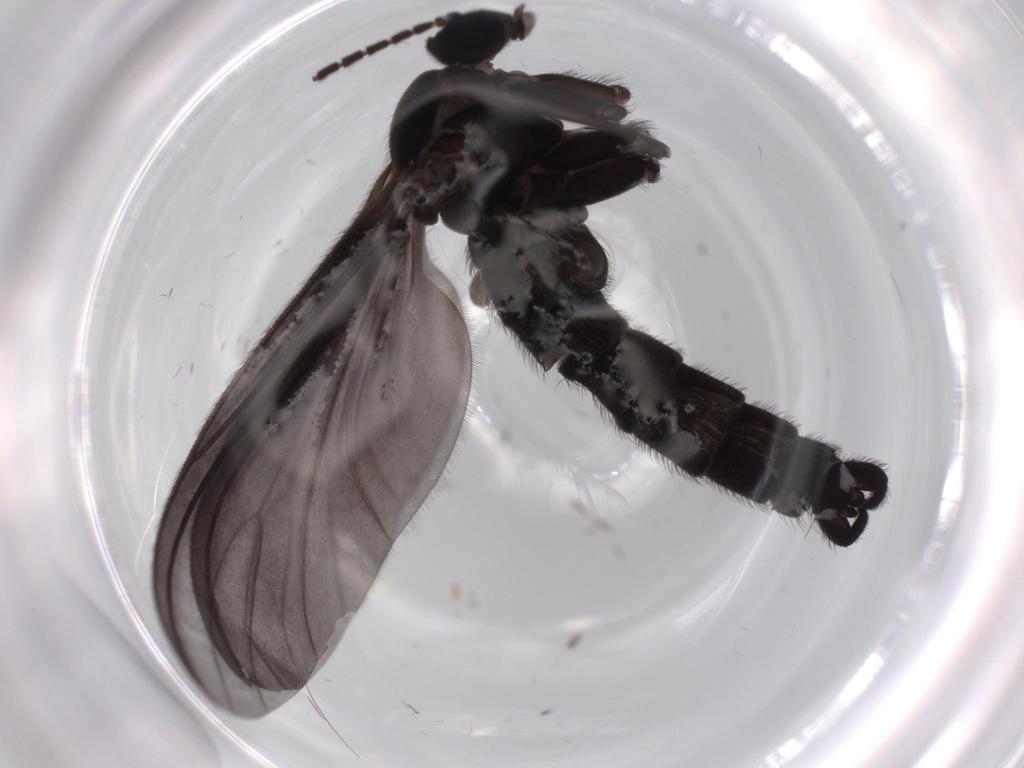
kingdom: Animalia
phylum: Arthropoda
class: Insecta
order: Diptera
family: Sciaridae
